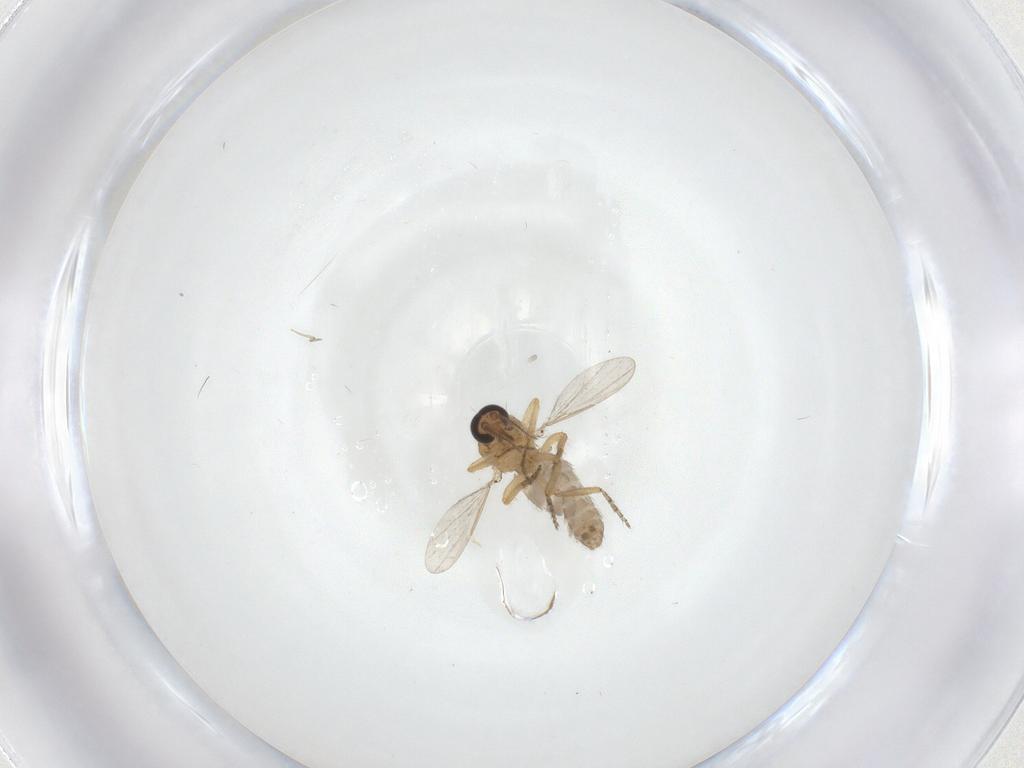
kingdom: Animalia
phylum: Arthropoda
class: Insecta
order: Diptera
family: Ceratopogonidae
